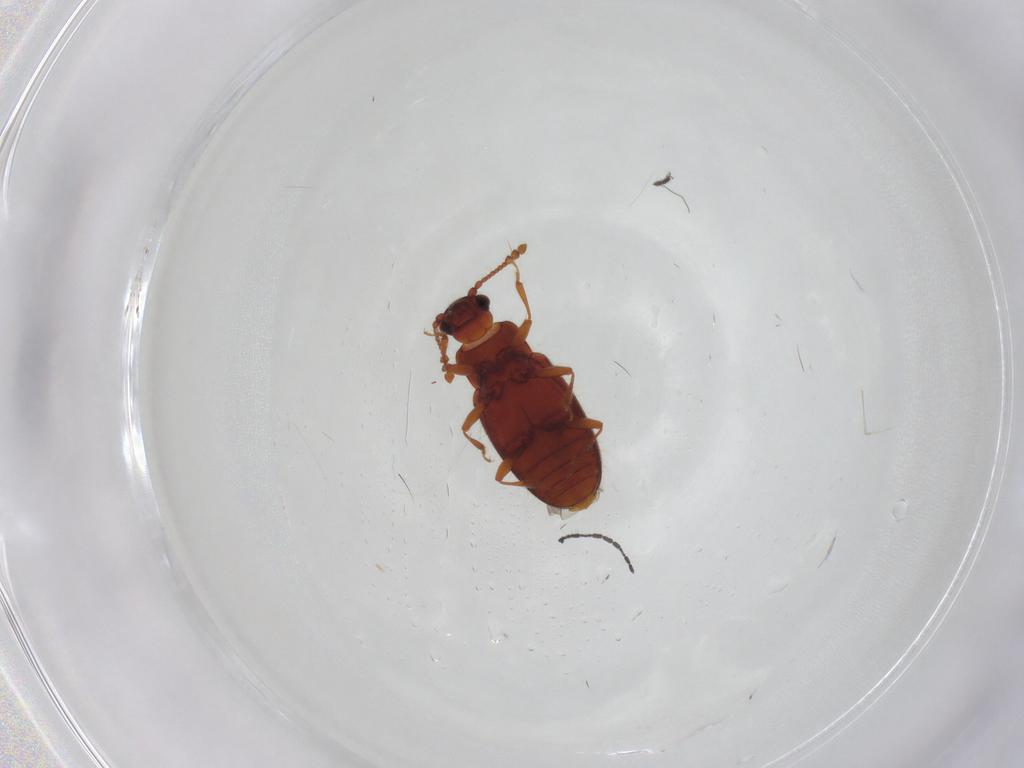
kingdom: Animalia
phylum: Arthropoda
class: Insecta
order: Coleoptera
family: Cryptophagidae
